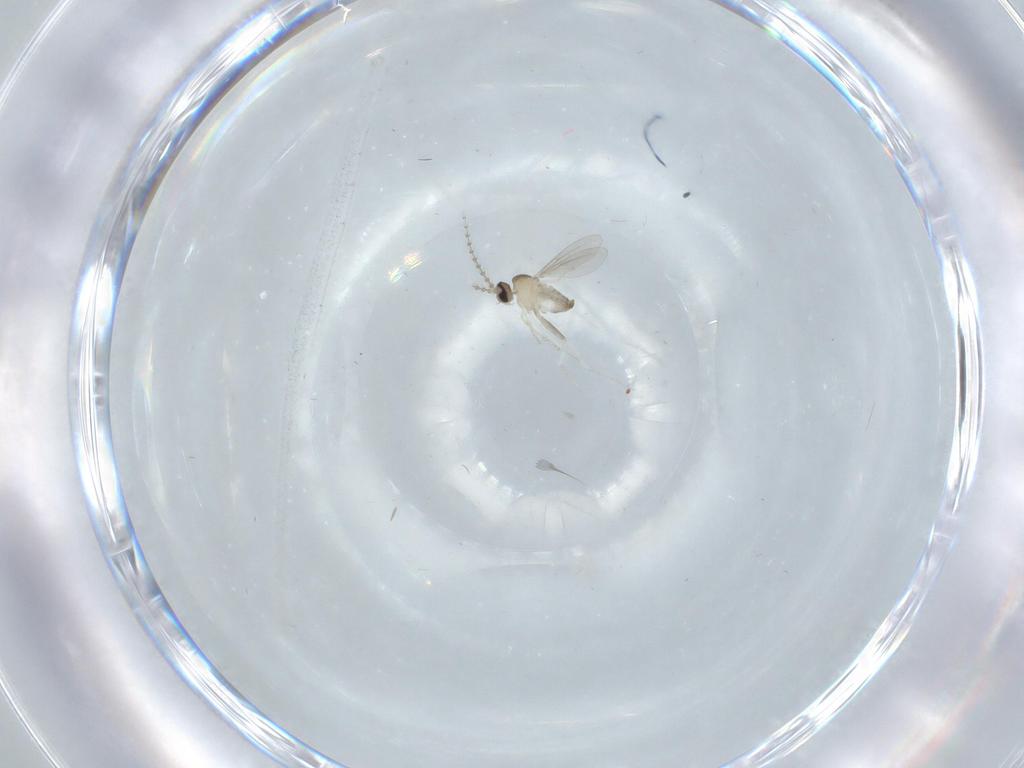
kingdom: Animalia
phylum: Arthropoda
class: Insecta
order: Diptera
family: Cecidomyiidae
